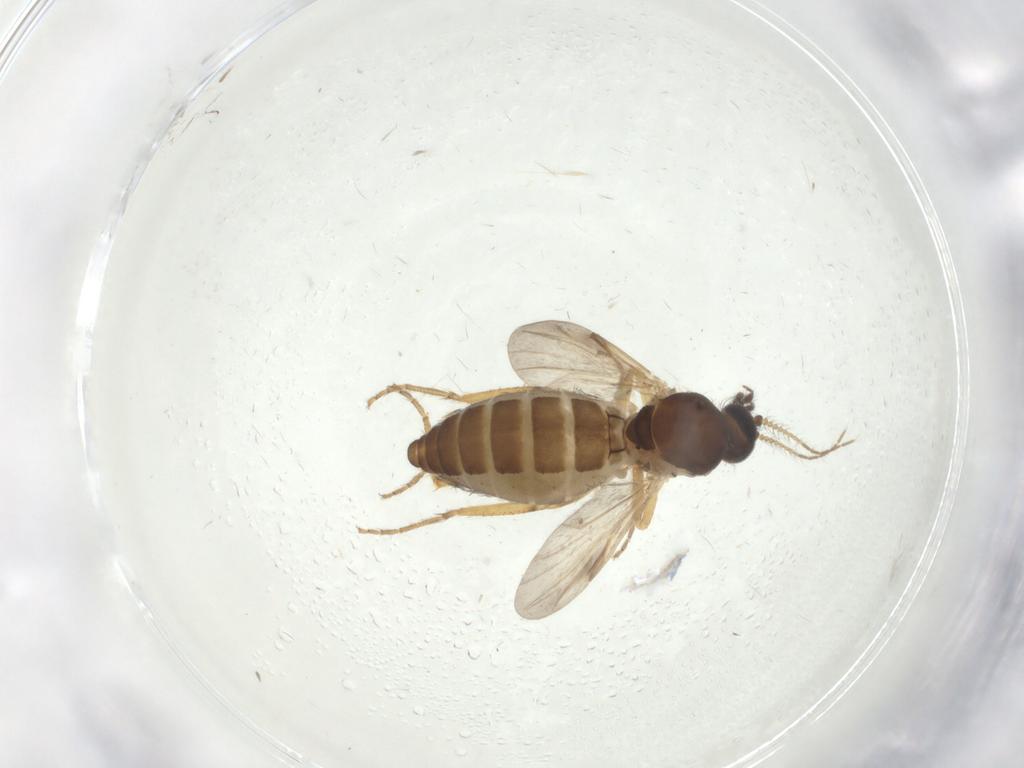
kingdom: Animalia
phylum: Arthropoda
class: Insecta
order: Diptera
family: Ceratopogonidae
